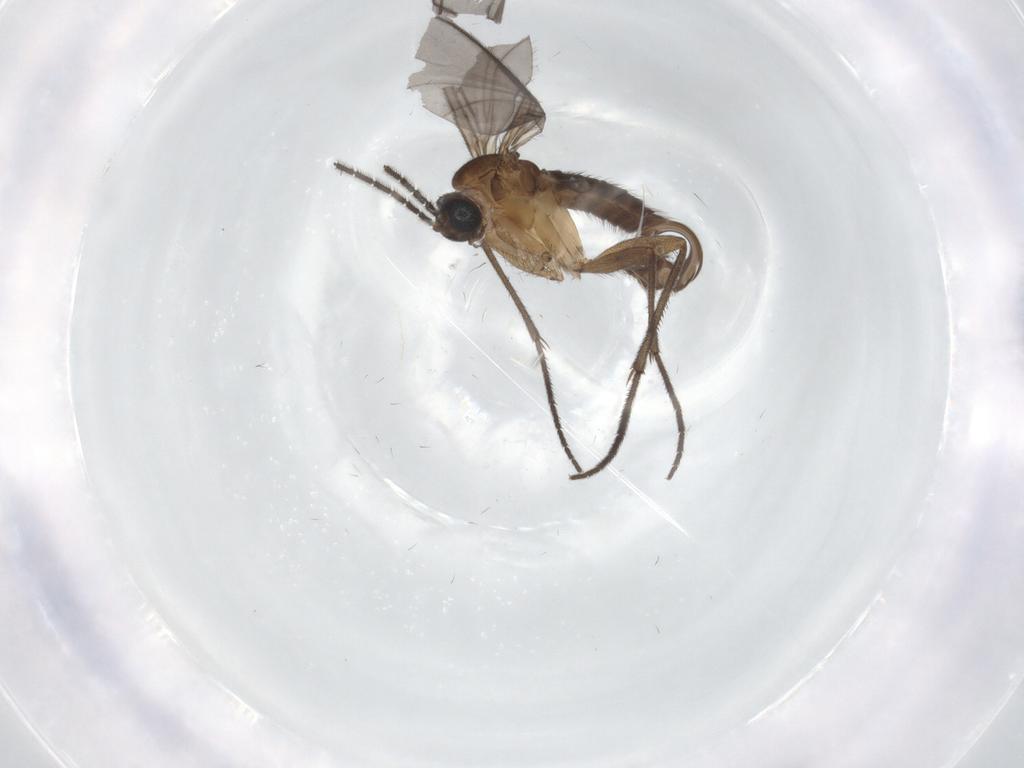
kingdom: Animalia
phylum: Arthropoda
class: Insecta
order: Diptera
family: Sciaridae
